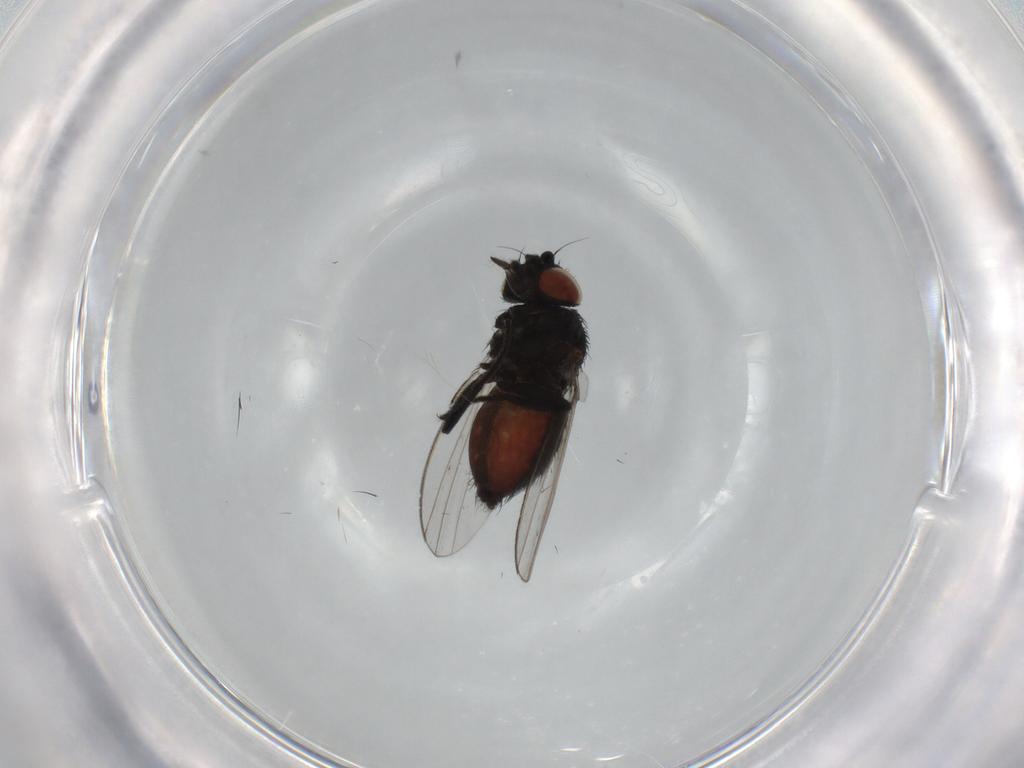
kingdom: Animalia
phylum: Arthropoda
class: Insecta
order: Diptera
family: Milichiidae
